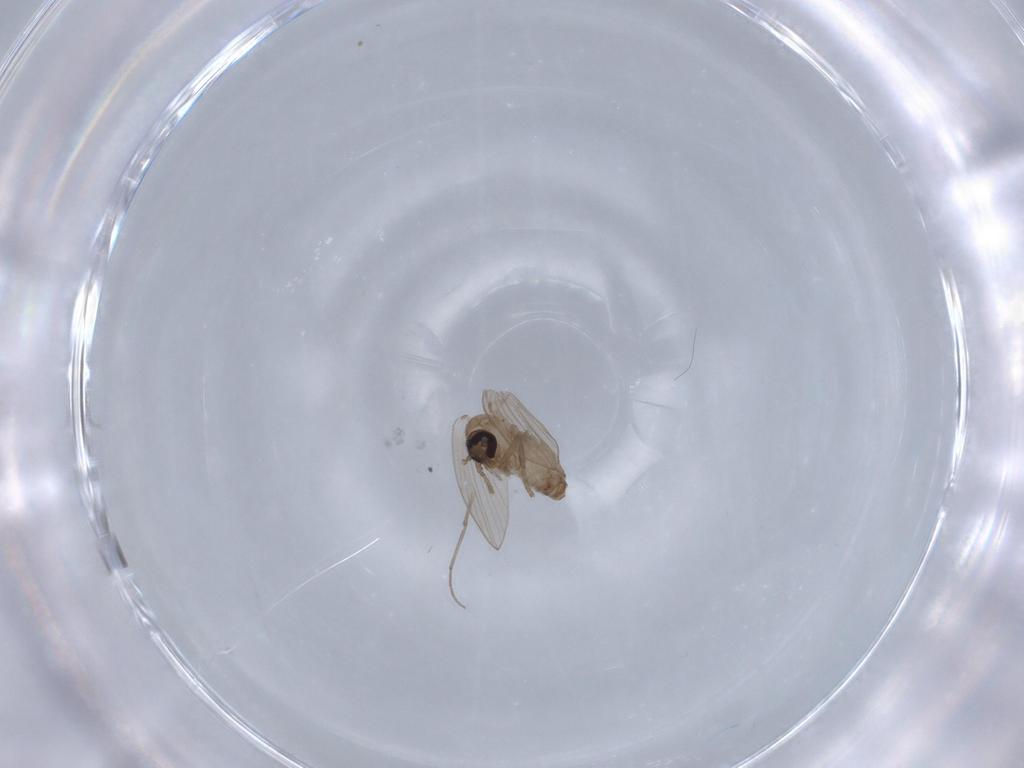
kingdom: Animalia
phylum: Arthropoda
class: Insecta
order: Diptera
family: Chironomidae
